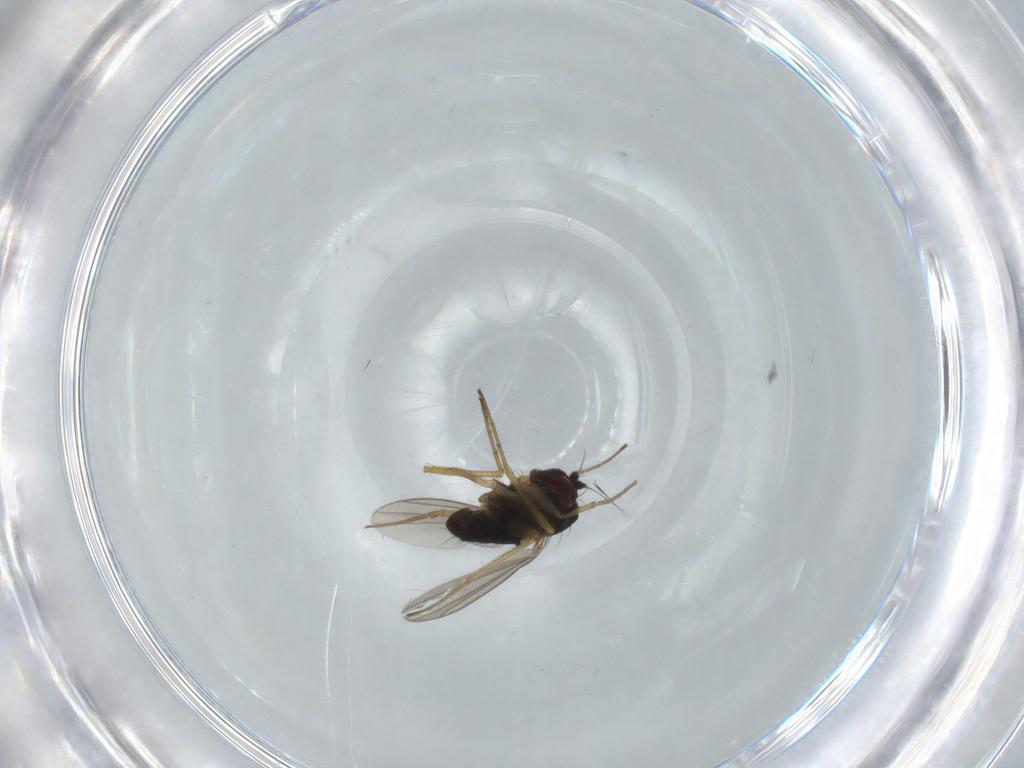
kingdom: Animalia
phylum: Arthropoda
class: Insecta
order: Diptera
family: Dolichopodidae
